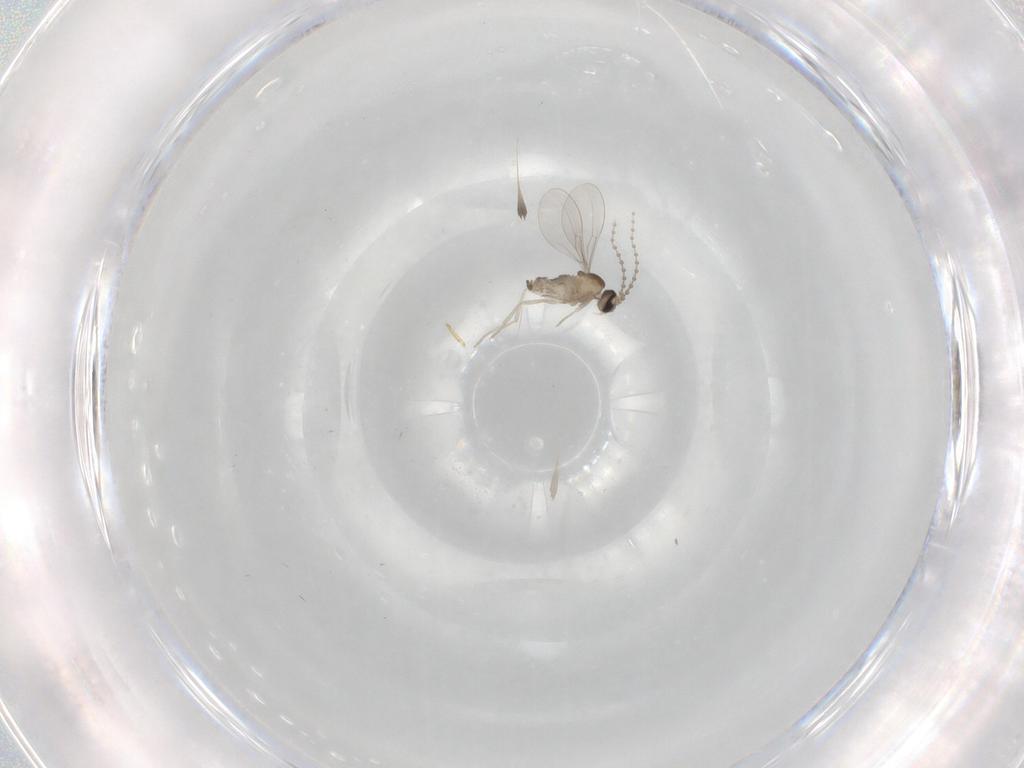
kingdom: Animalia
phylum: Arthropoda
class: Insecta
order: Diptera
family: Cecidomyiidae
